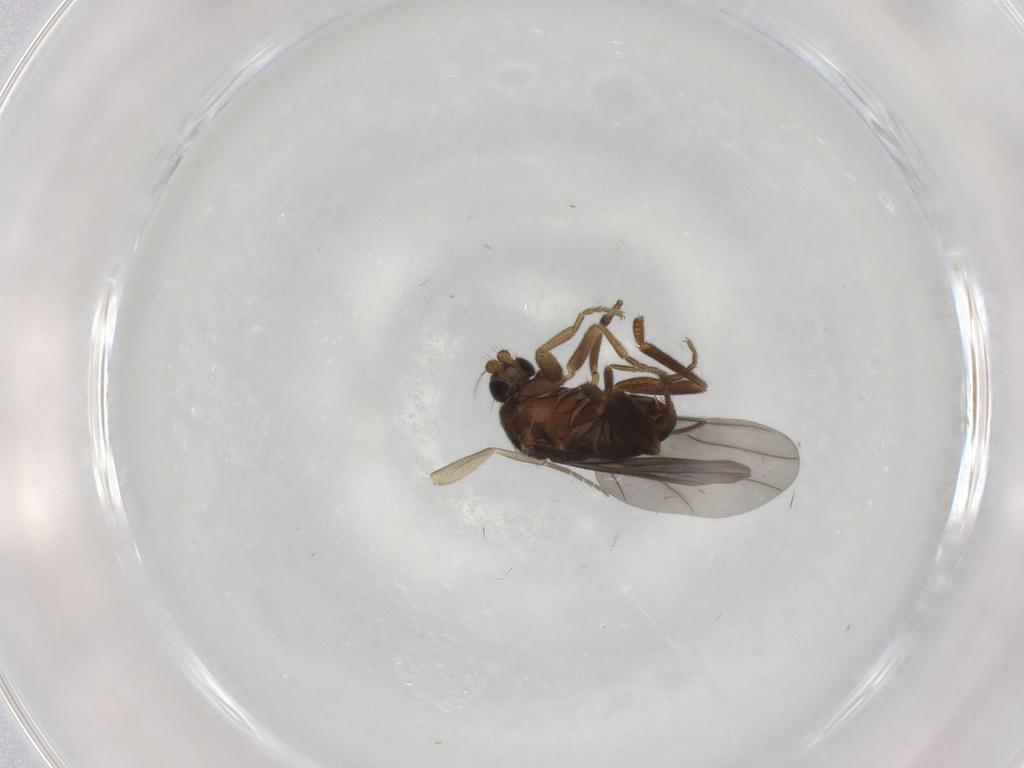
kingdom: Animalia
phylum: Arthropoda
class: Insecta
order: Diptera
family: Phoridae
